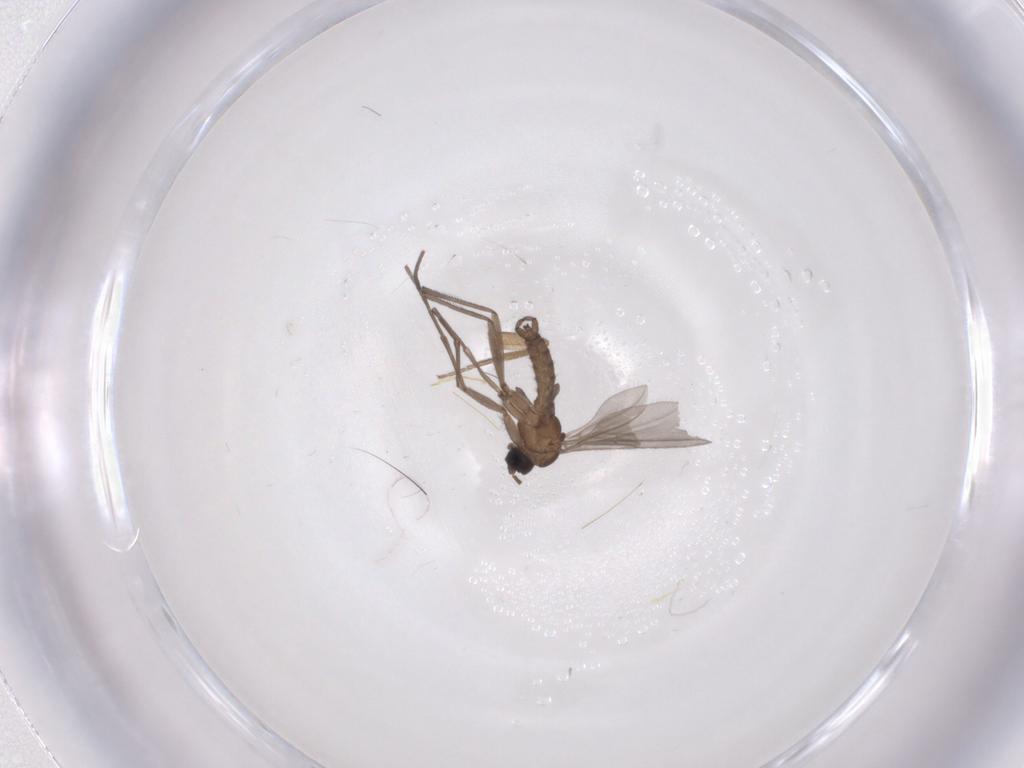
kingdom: Animalia
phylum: Arthropoda
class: Insecta
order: Diptera
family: Sciaridae
